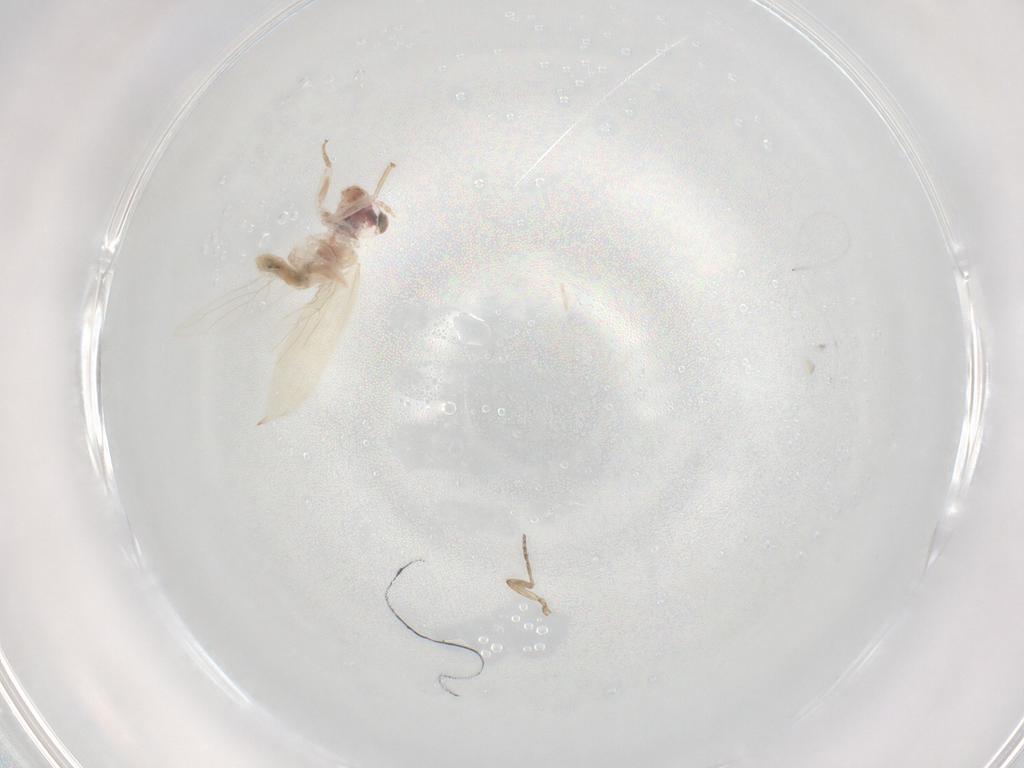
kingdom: Animalia
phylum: Arthropoda
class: Insecta
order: Psocodea
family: Lepidopsocidae
